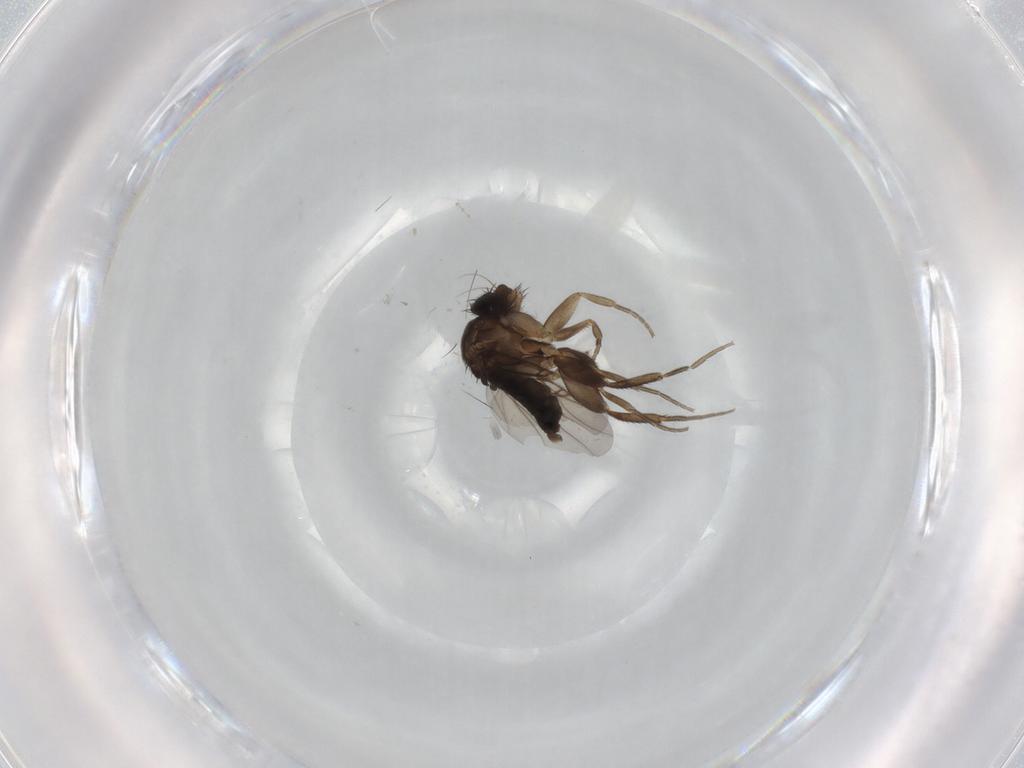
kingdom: Animalia
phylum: Arthropoda
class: Insecta
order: Diptera
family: Phoridae
